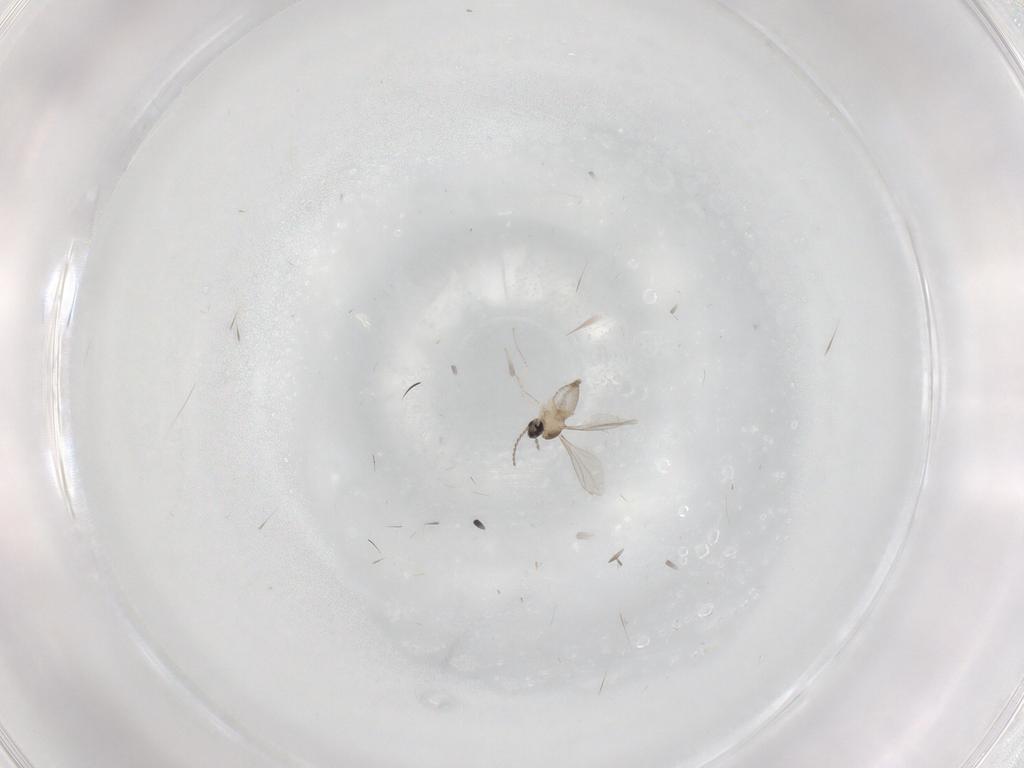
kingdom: Animalia
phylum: Arthropoda
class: Insecta
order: Diptera
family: Cecidomyiidae
